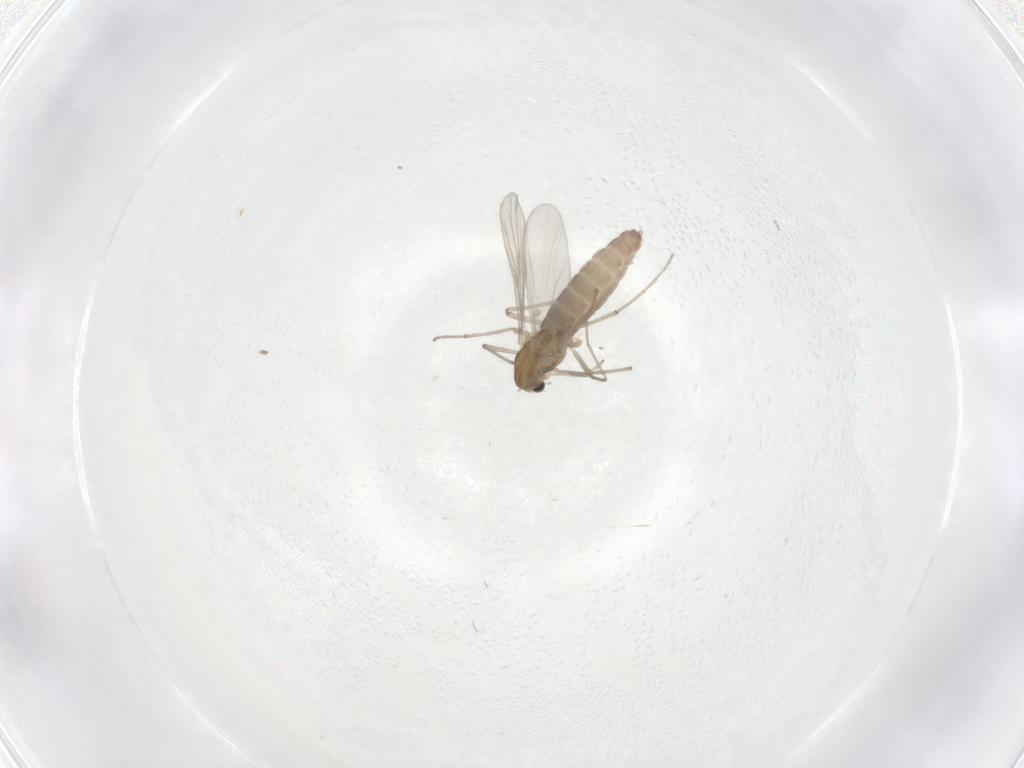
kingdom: Animalia
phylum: Arthropoda
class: Insecta
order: Diptera
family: Chironomidae
